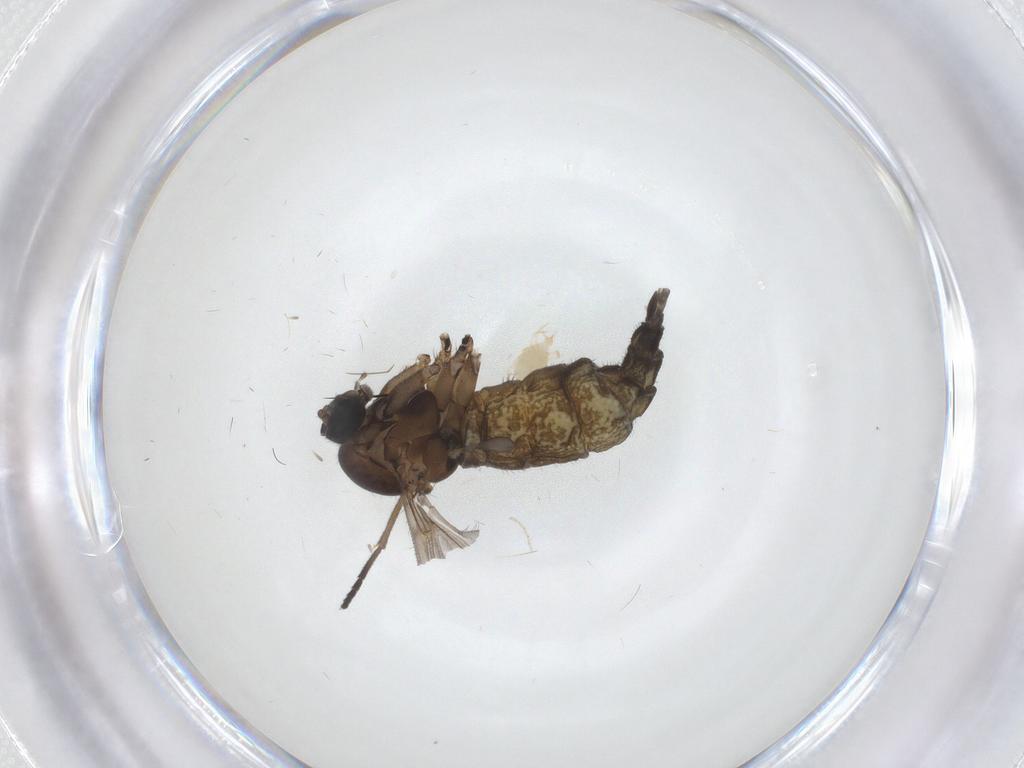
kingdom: Animalia
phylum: Arthropoda
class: Insecta
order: Diptera
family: Sciaridae
